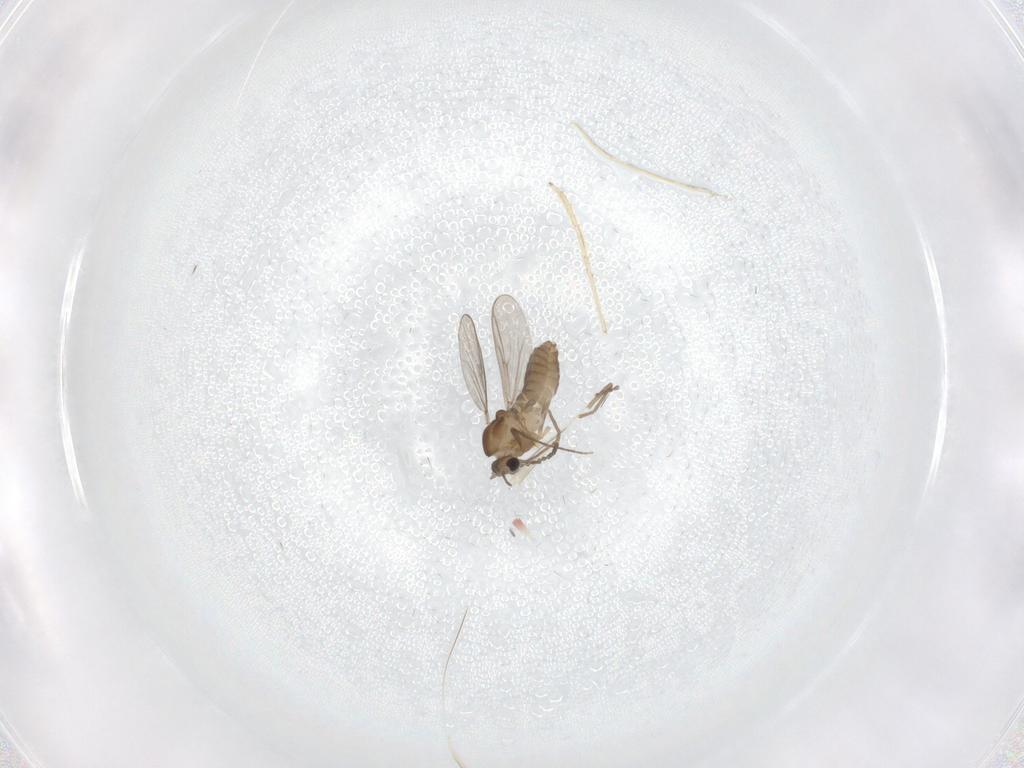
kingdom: Animalia
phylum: Arthropoda
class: Insecta
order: Diptera
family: Chironomidae
